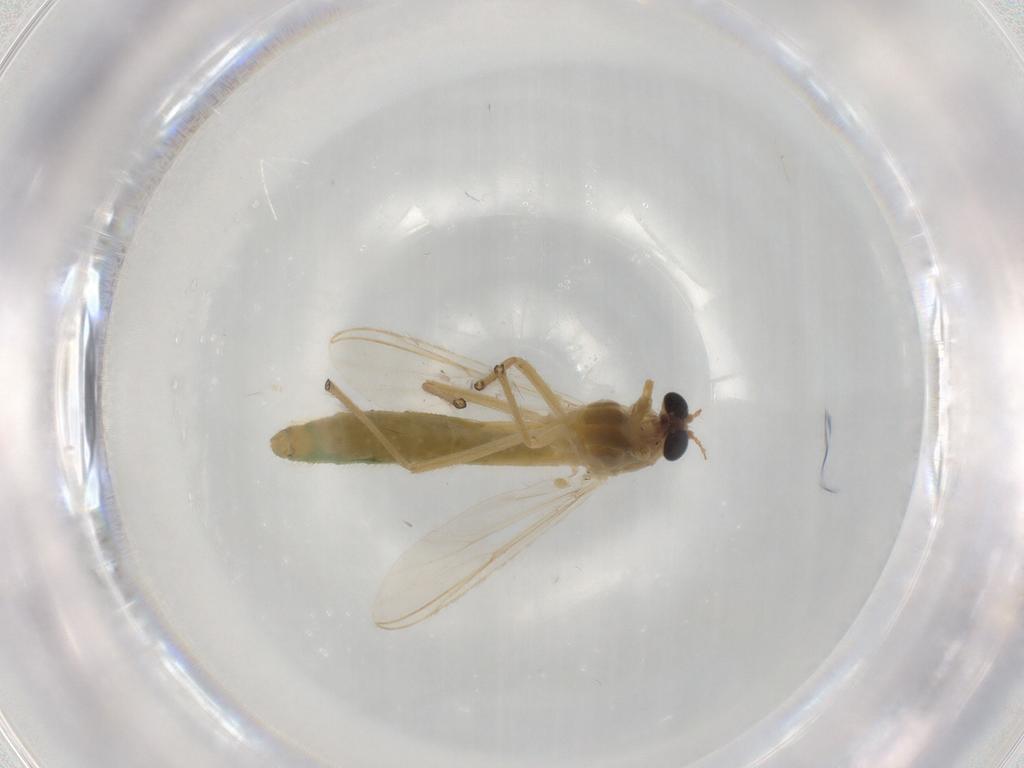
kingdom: Animalia
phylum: Arthropoda
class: Insecta
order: Diptera
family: Chironomidae
